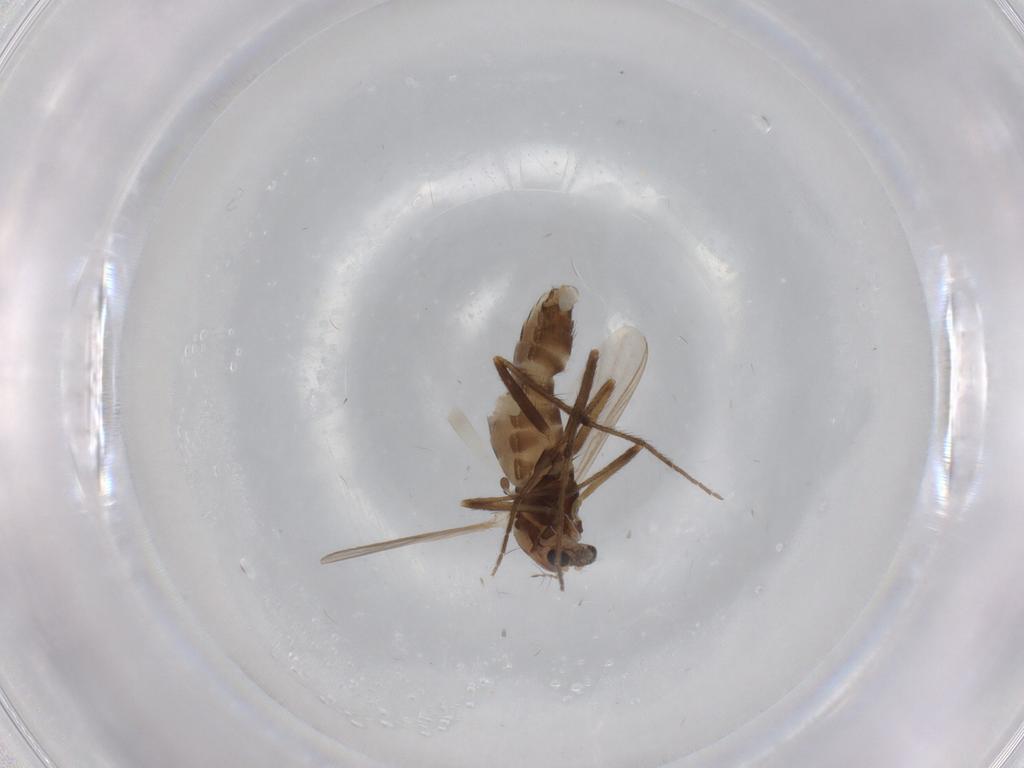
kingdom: Animalia
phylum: Arthropoda
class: Insecta
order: Diptera
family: Chironomidae
